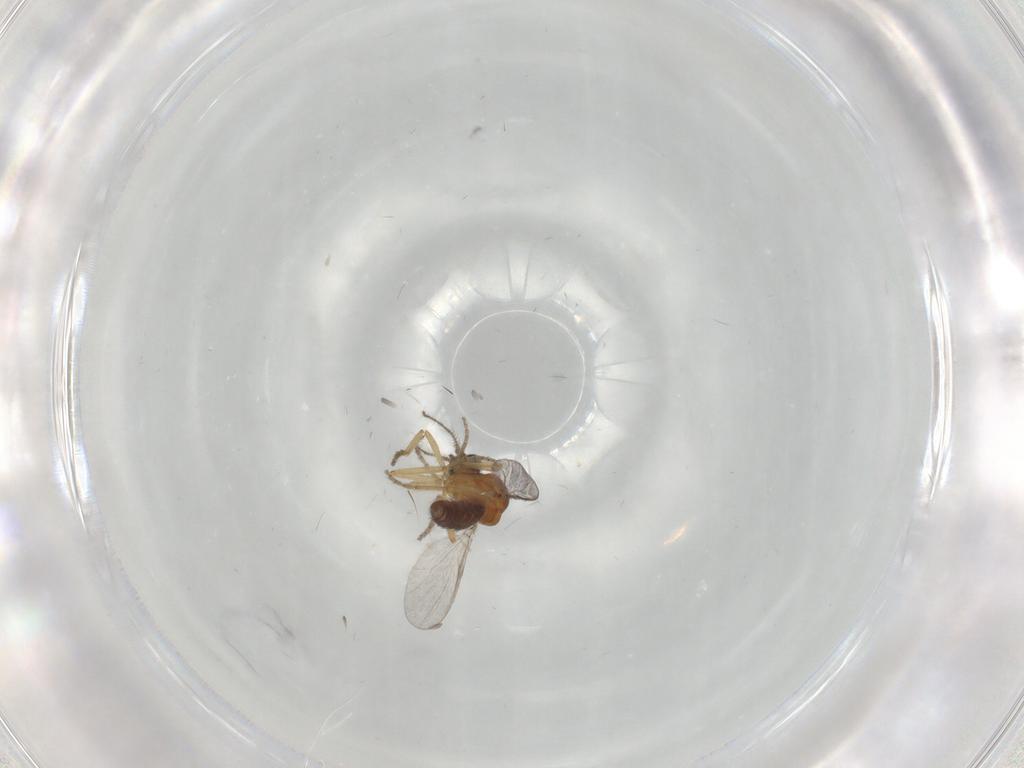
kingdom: Animalia
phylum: Arthropoda
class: Insecta
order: Diptera
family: Ceratopogonidae
